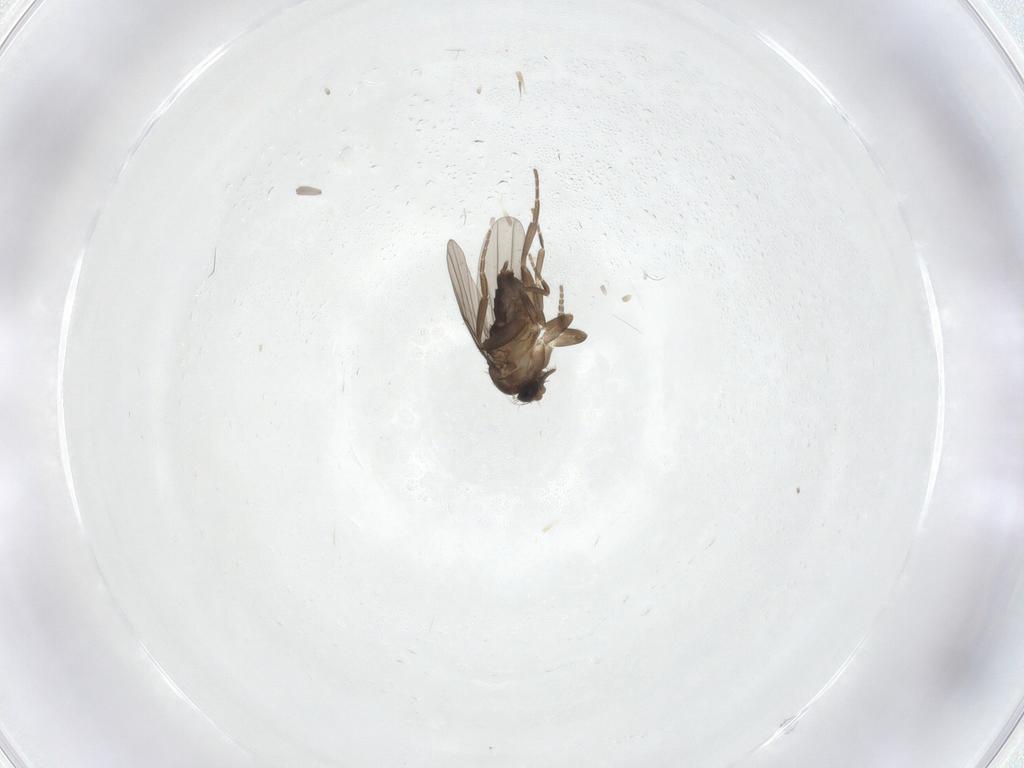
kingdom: Animalia
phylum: Arthropoda
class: Insecta
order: Diptera
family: Phoridae
